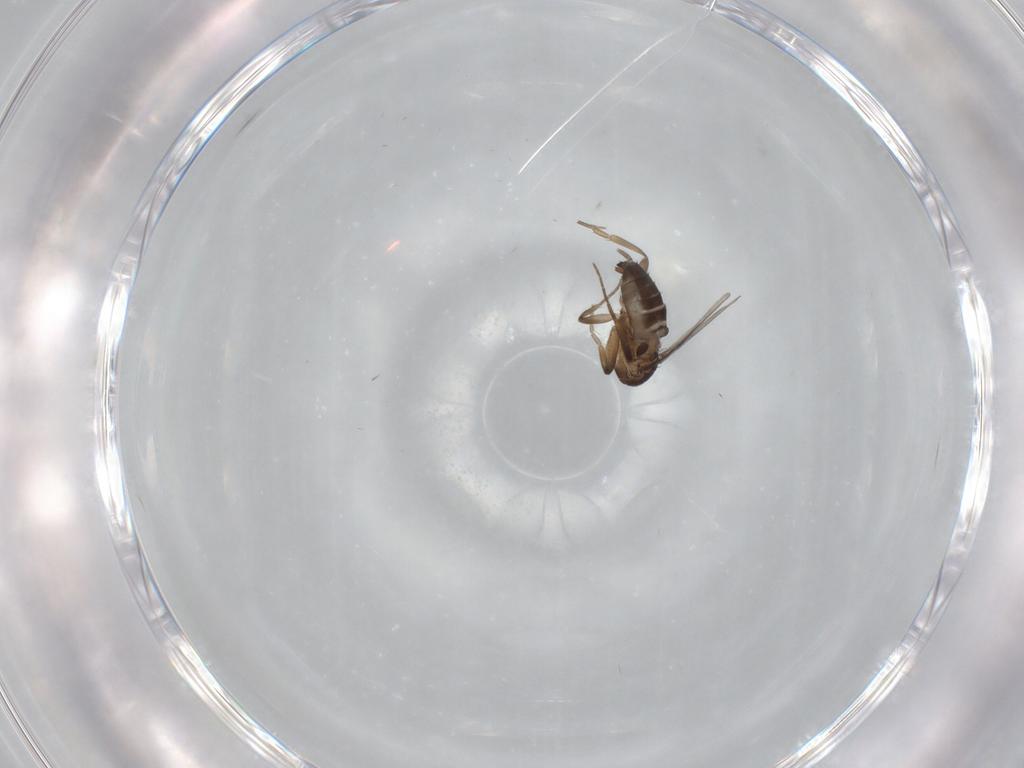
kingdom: Animalia
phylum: Arthropoda
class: Insecta
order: Diptera
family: Phoridae
